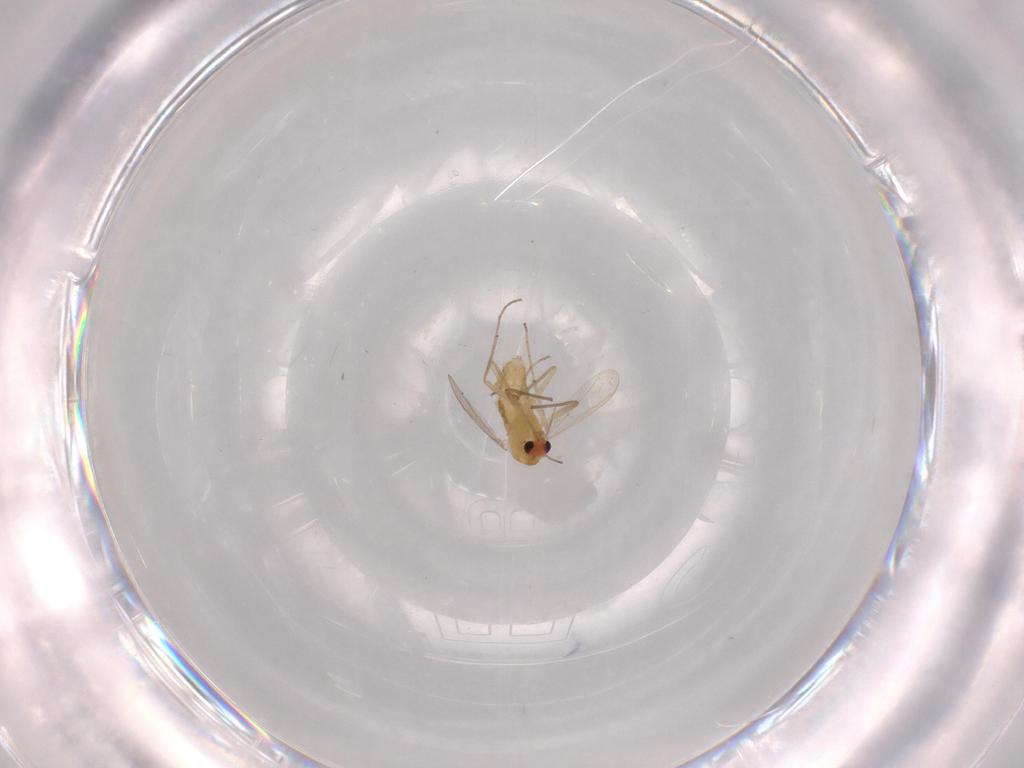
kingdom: Animalia
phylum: Arthropoda
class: Insecta
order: Diptera
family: Chironomidae
